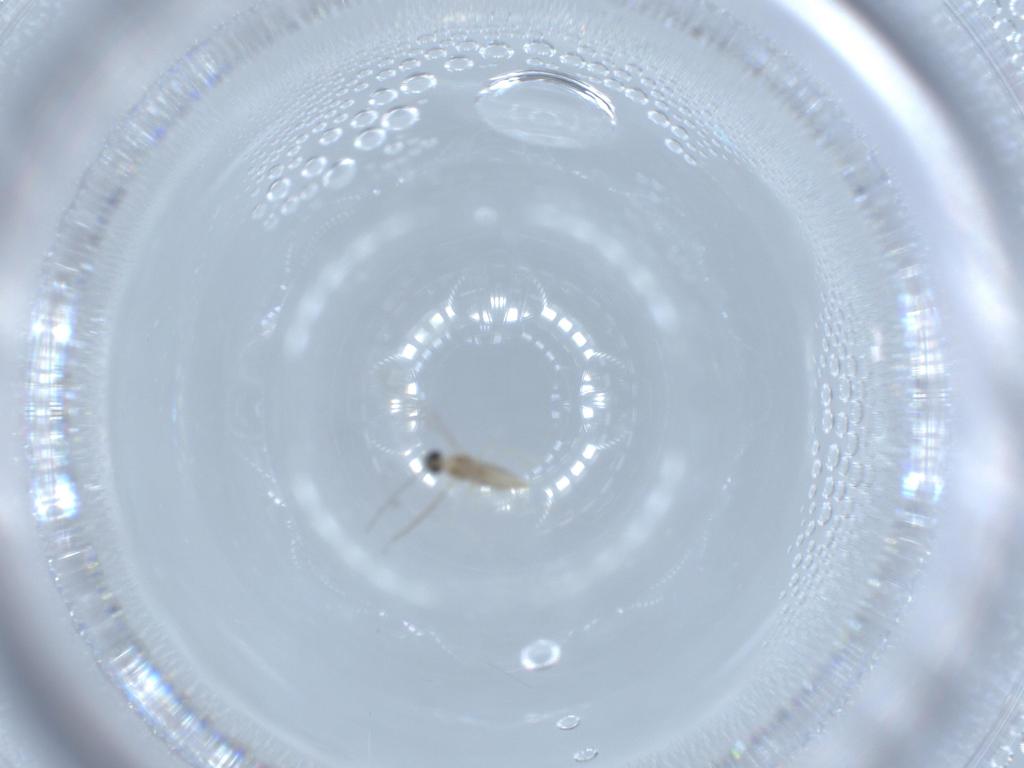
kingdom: Animalia
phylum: Arthropoda
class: Insecta
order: Diptera
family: Cecidomyiidae
